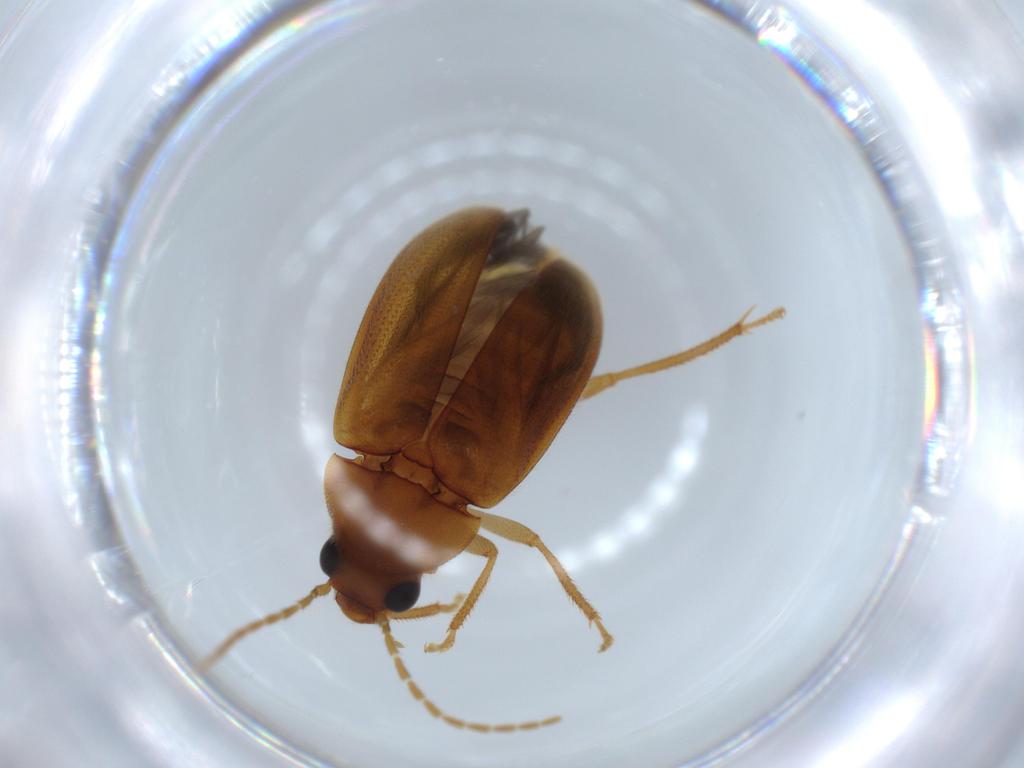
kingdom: Animalia
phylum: Arthropoda
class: Insecta
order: Coleoptera
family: Ptilodactylidae
